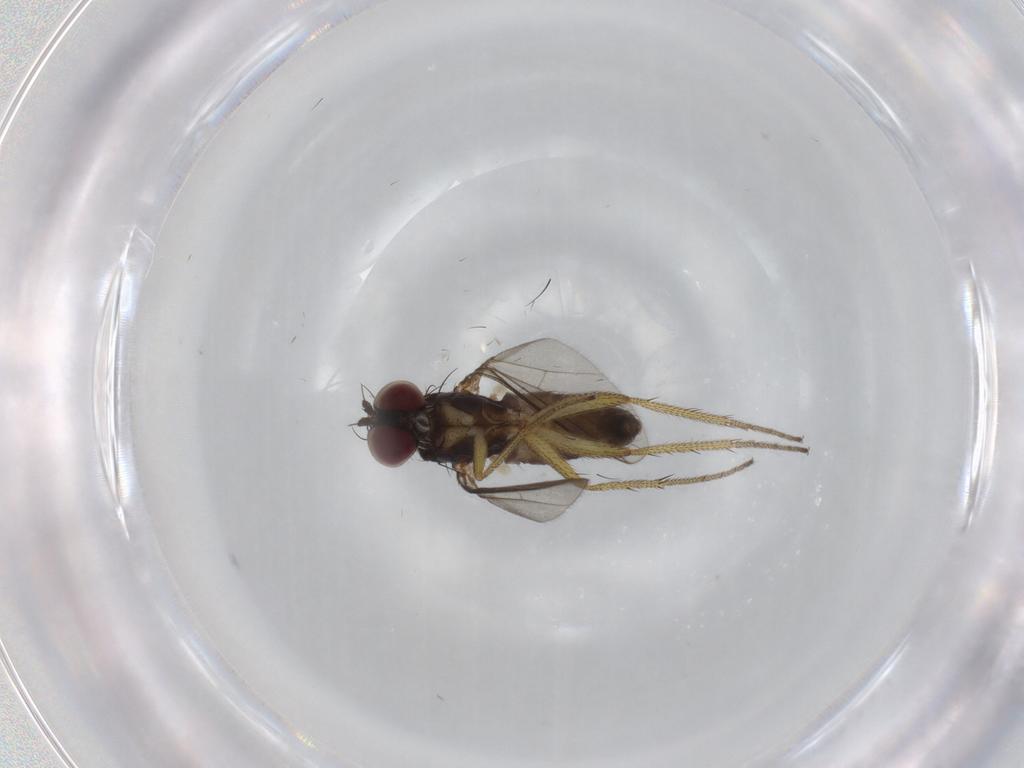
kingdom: Animalia
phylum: Arthropoda
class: Insecta
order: Diptera
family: Dolichopodidae
